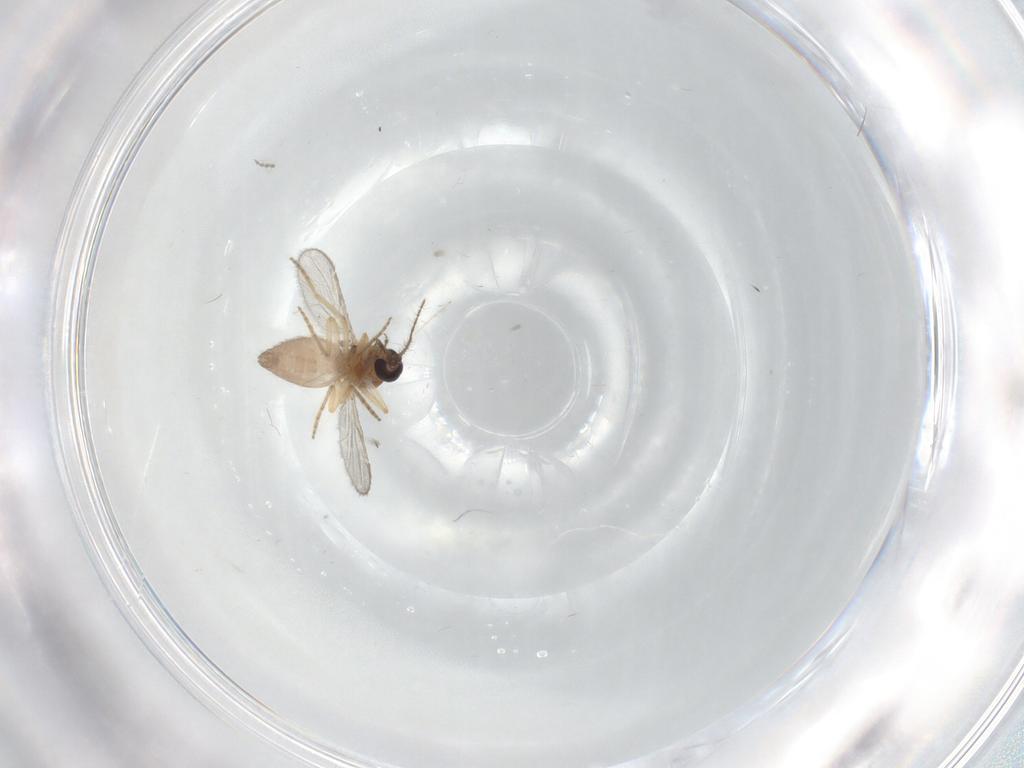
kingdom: Animalia
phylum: Arthropoda
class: Insecta
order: Diptera
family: Ceratopogonidae
